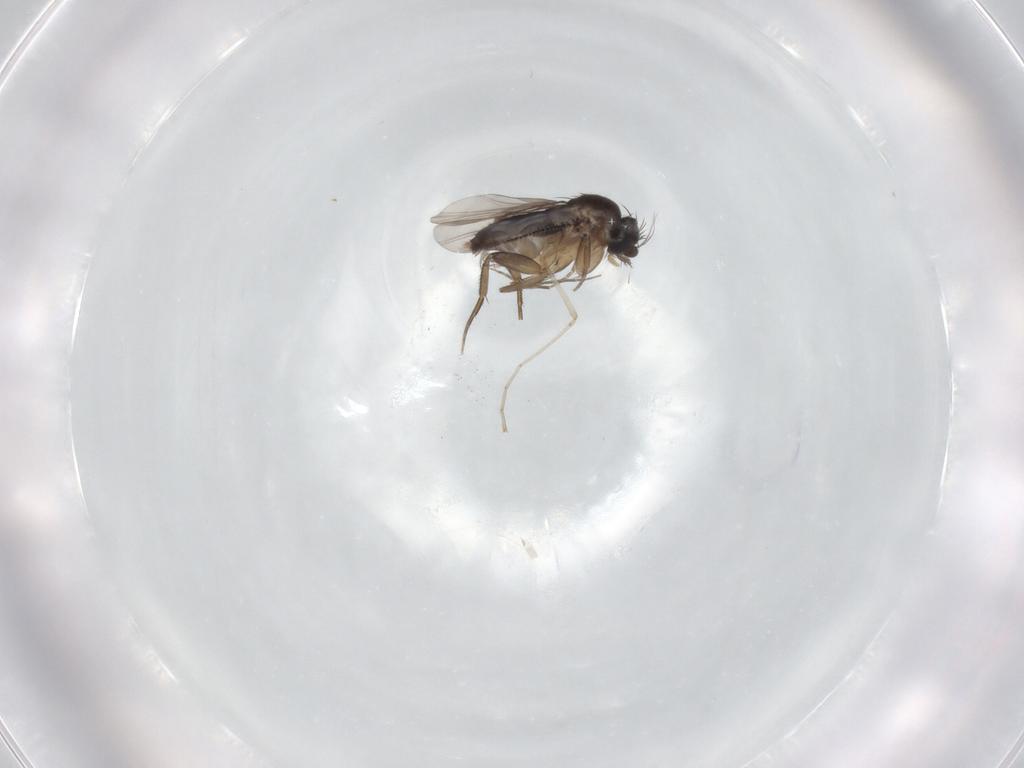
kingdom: Animalia
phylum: Arthropoda
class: Insecta
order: Diptera
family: Phoridae
